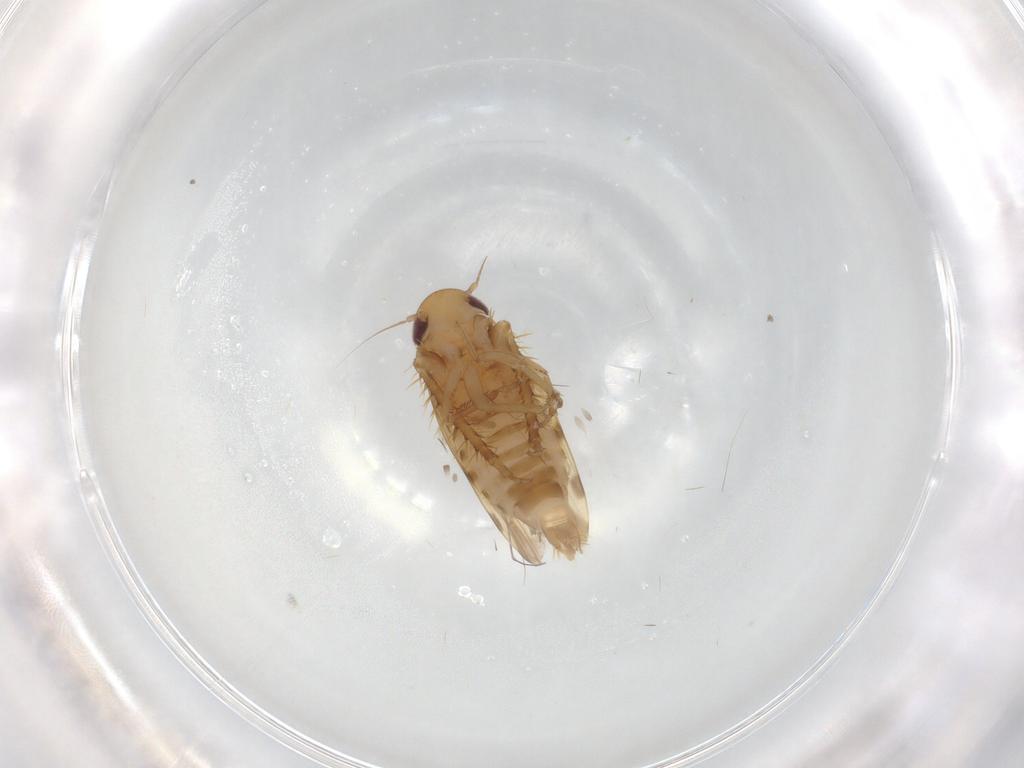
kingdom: Animalia
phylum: Arthropoda
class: Insecta
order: Hemiptera
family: Cicadellidae
